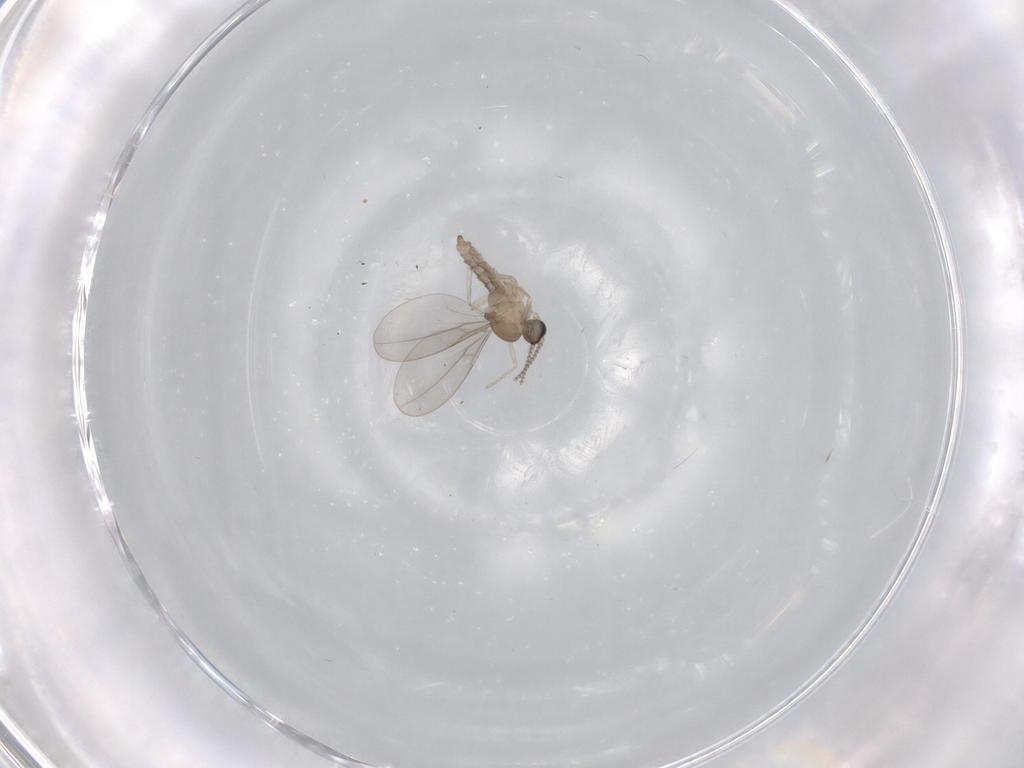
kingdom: Animalia
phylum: Arthropoda
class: Insecta
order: Diptera
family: Cecidomyiidae
